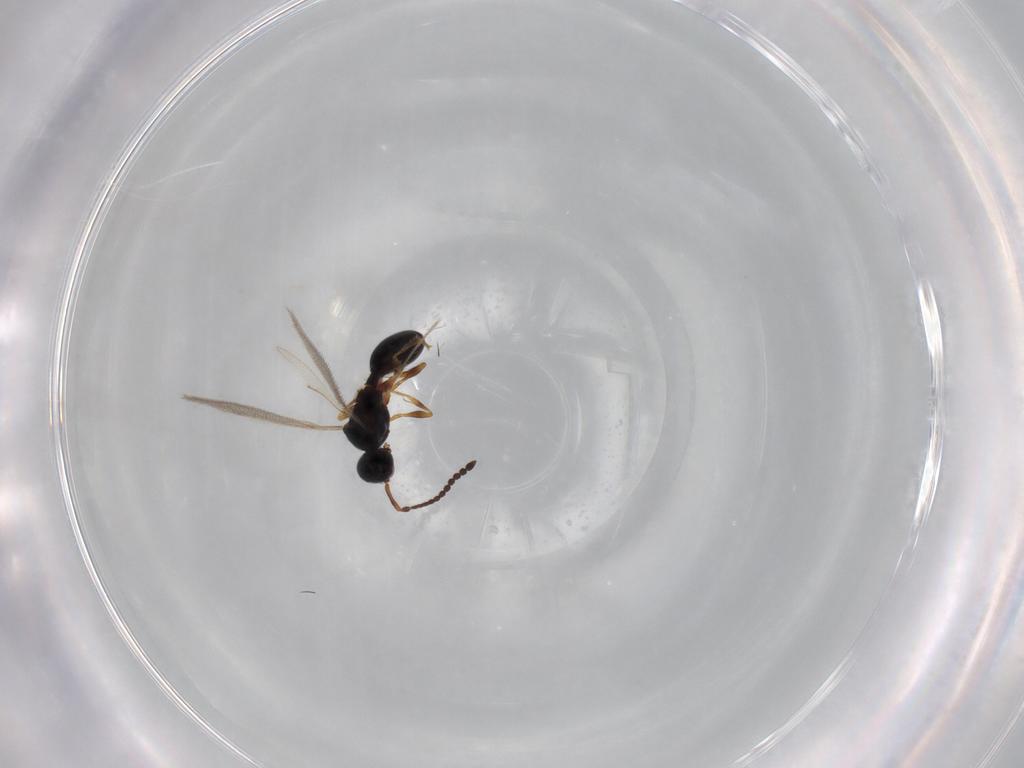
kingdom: Animalia
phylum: Arthropoda
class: Insecta
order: Hymenoptera
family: Diapriidae
